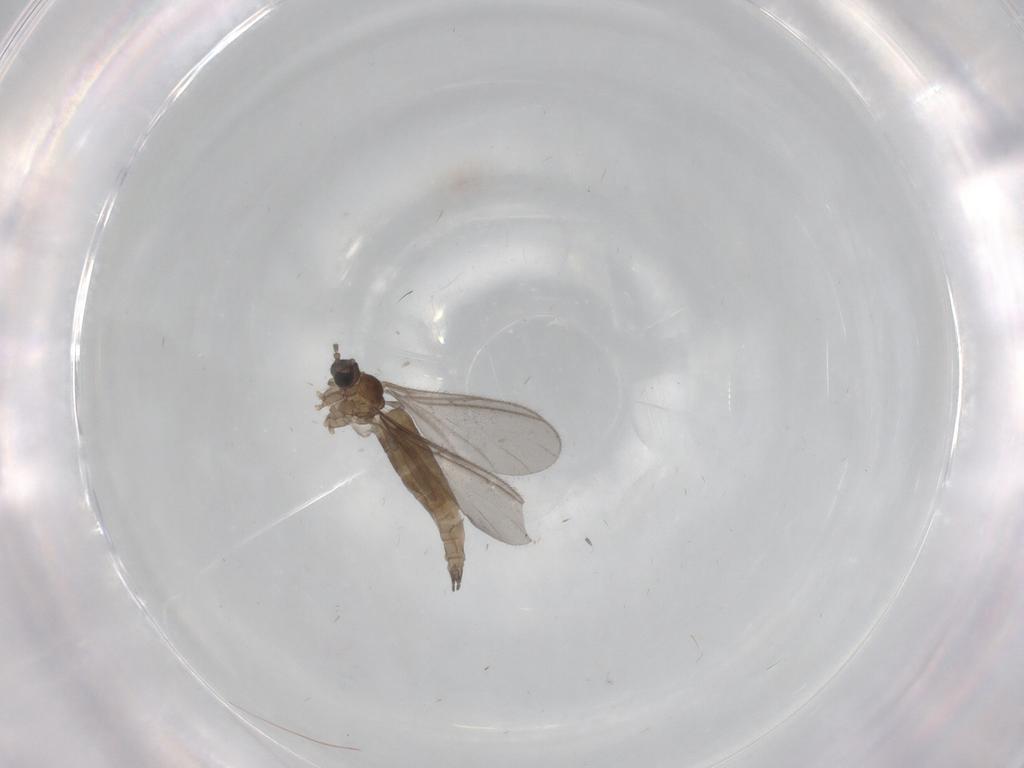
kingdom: Animalia
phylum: Arthropoda
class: Insecta
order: Diptera
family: Sciaridae
